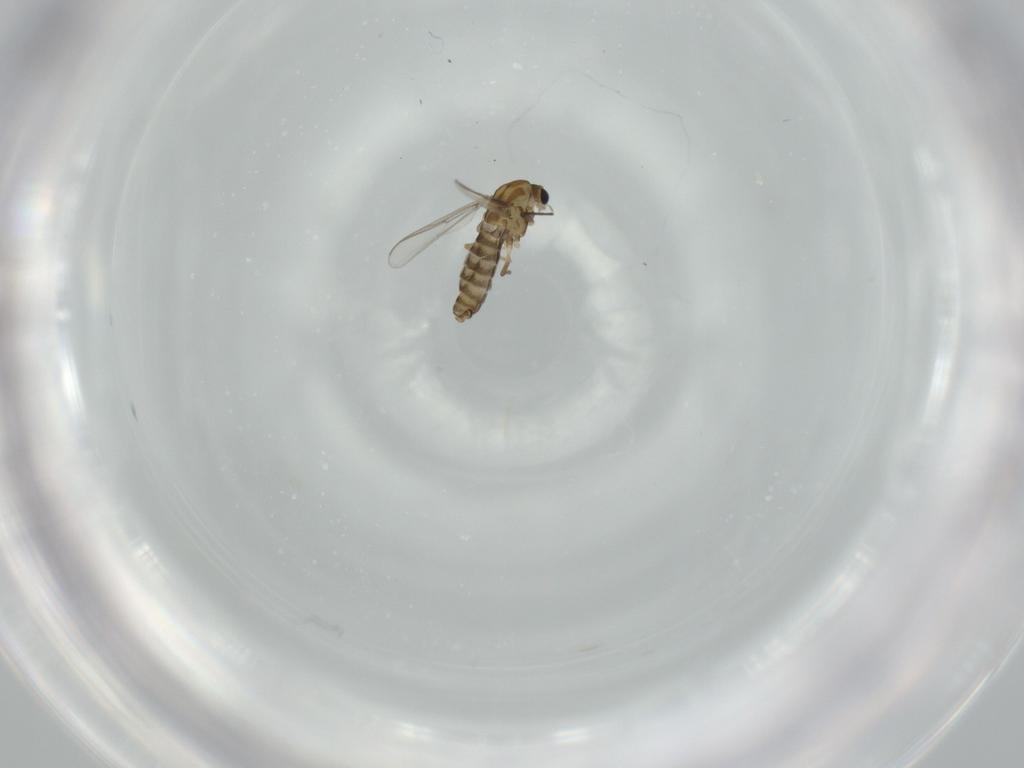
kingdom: Animalia
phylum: Arthropoda
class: Insecta
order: Diptera
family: Chironomidae
